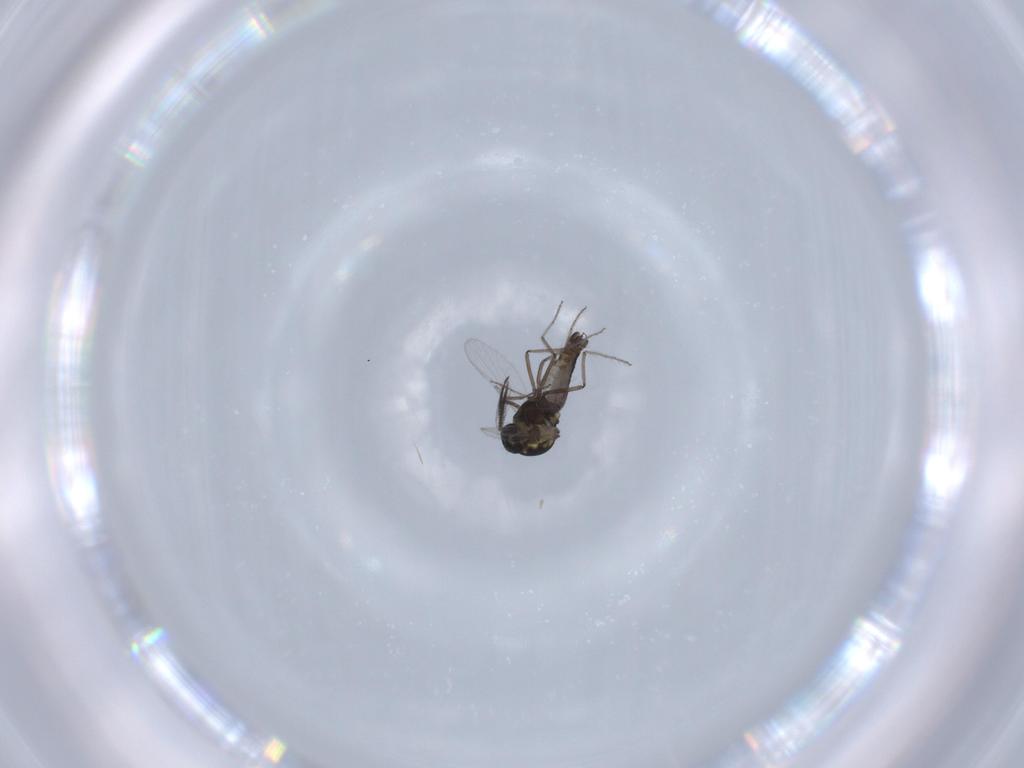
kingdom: Animalia
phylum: Arthropoda
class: Insecta
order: Diptera
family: Ceratopogonidae
